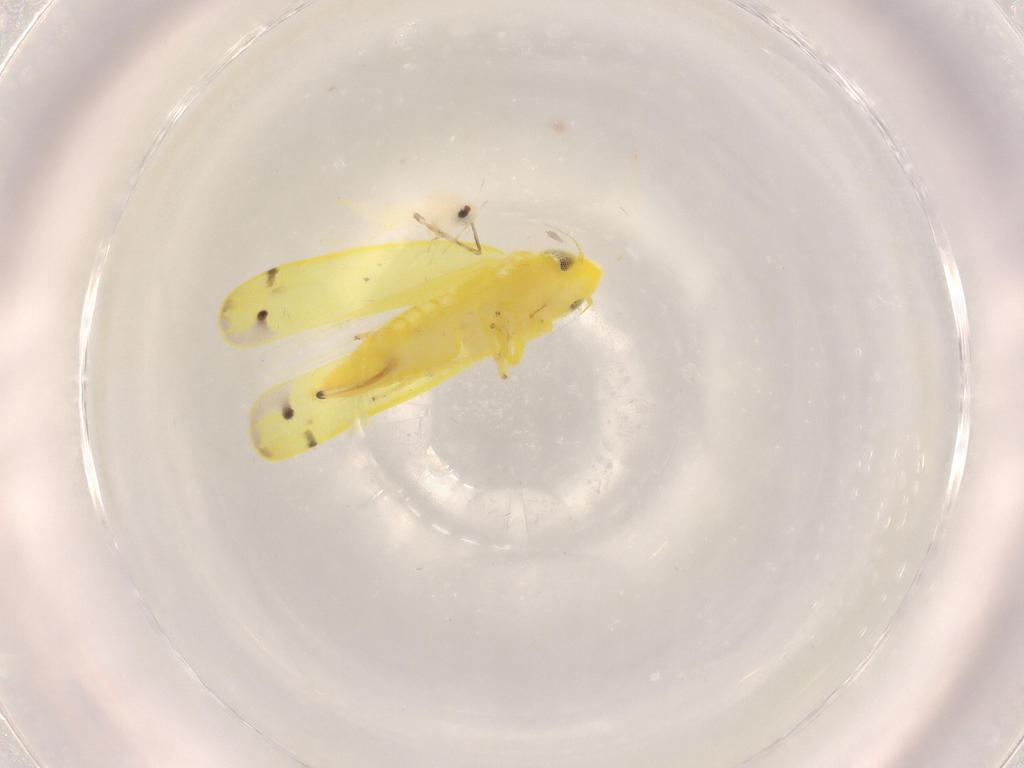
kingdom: Animalia
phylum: Arthropoda
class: Insecta
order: Hemiptera
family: Cicadellidae
